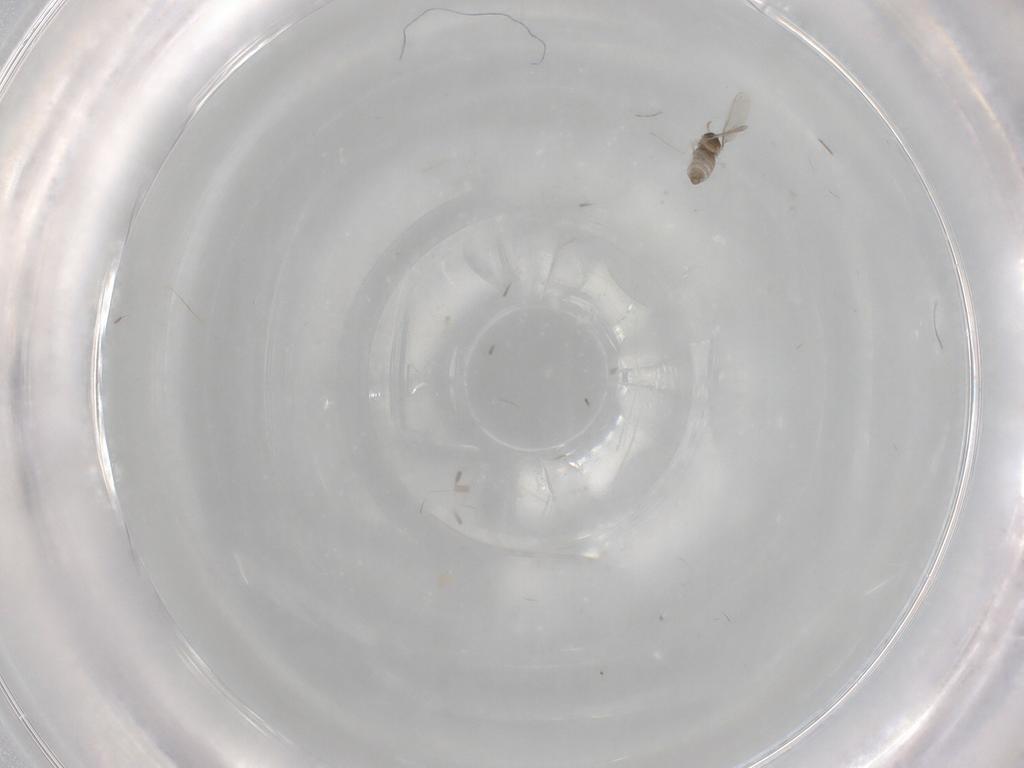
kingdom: Animalia
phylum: Arthropoda
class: Insecta
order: Diptera
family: Cecidomyiidae
